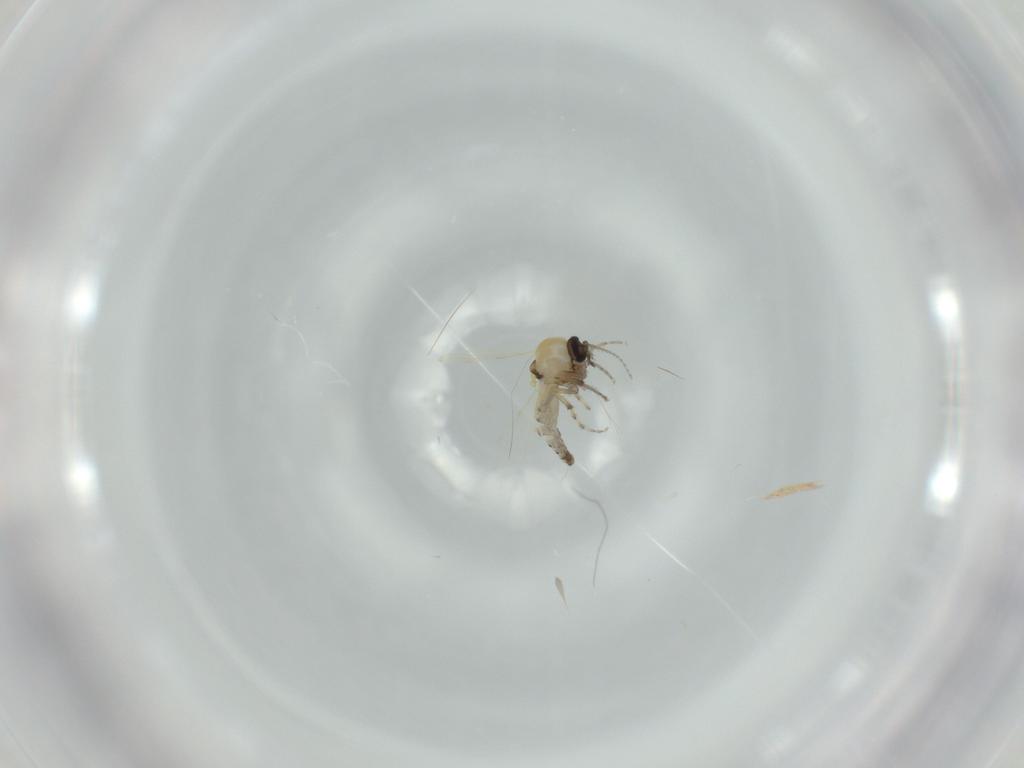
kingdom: Animalia
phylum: Arthropoda
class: Insecta
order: Diptera
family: Ceratopogonidae
